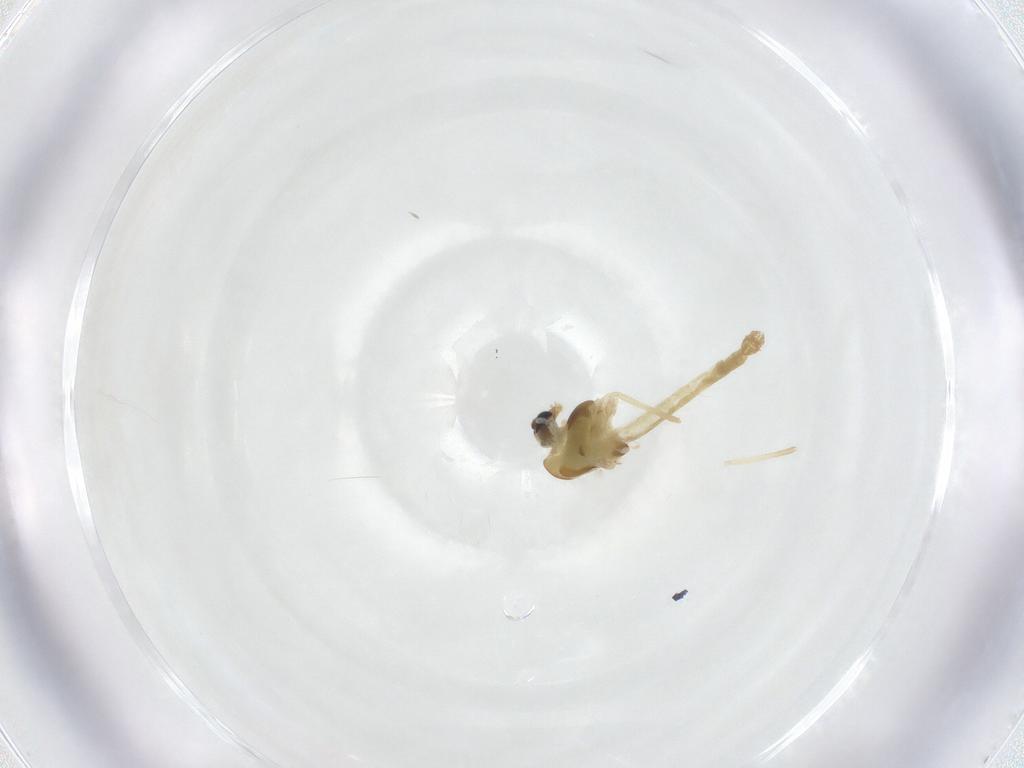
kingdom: Animalia
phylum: Arthropoda
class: Insecta
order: Diptera
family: Chironomidae
